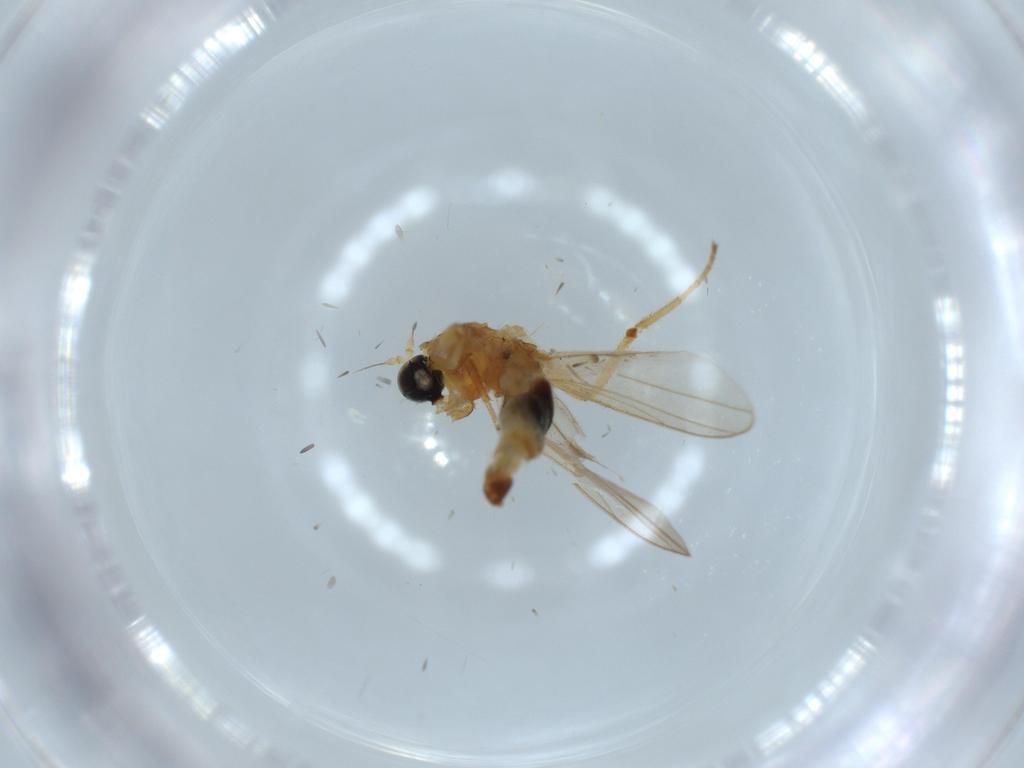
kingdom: Animalia
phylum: Arthropoda
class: Insecta
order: Diptera
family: Hybotidae
